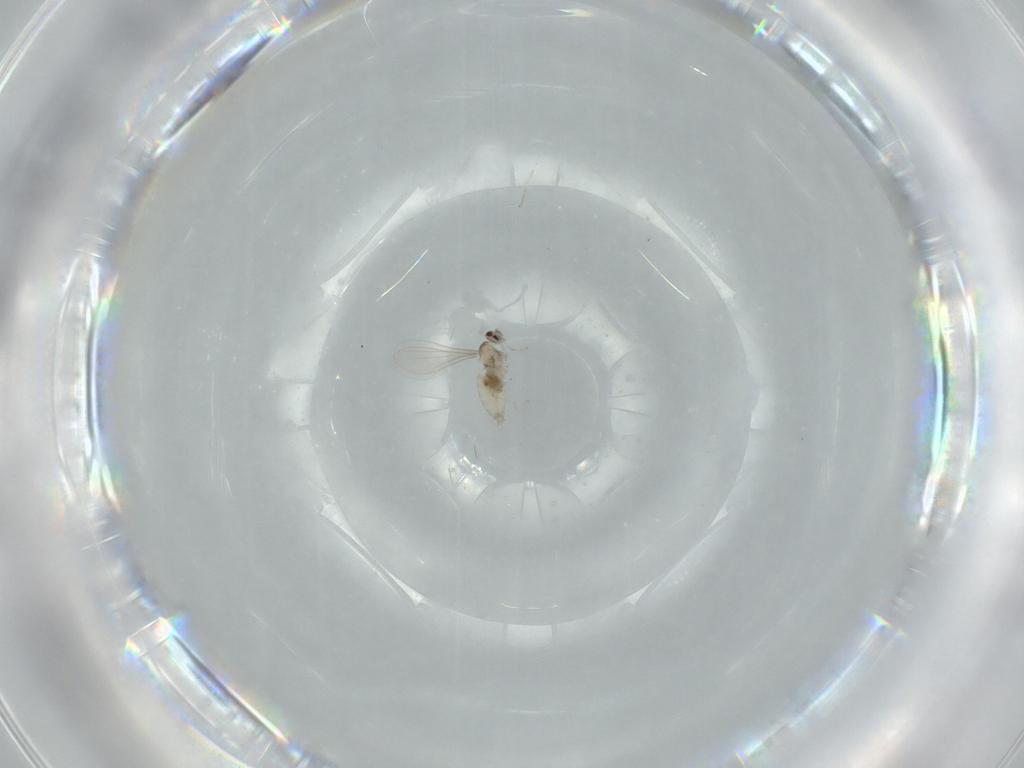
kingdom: Animalia
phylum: Arthropoda
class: Insecta
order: Diptera
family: Cecidomyiidae
